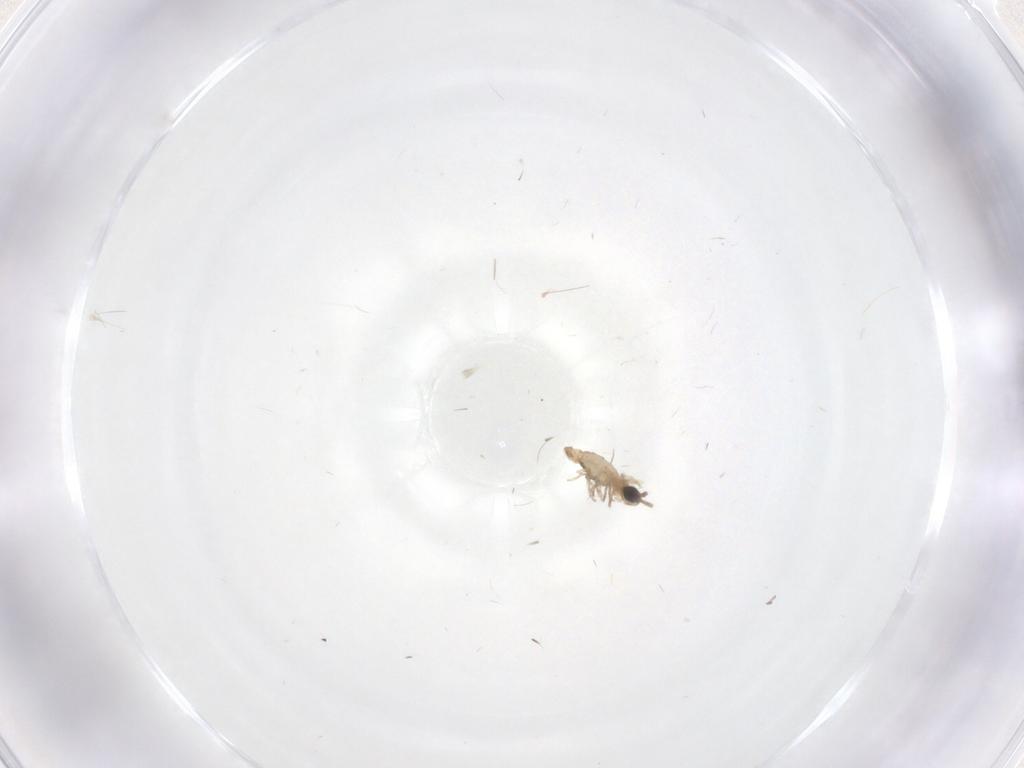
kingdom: Animalia
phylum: Arthropoda
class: Insecta
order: Diptera
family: Cecidomyiidae
